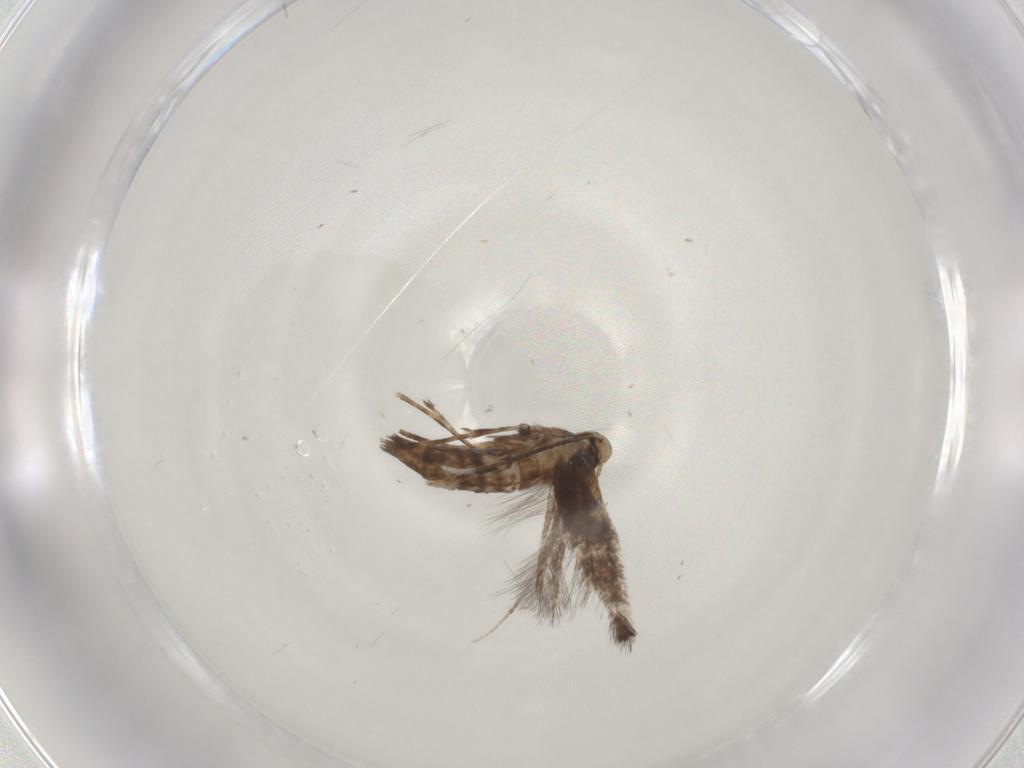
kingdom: Animalia
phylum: Arthropoda
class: Insecta
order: Lepidoptera
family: Gracillariidae
